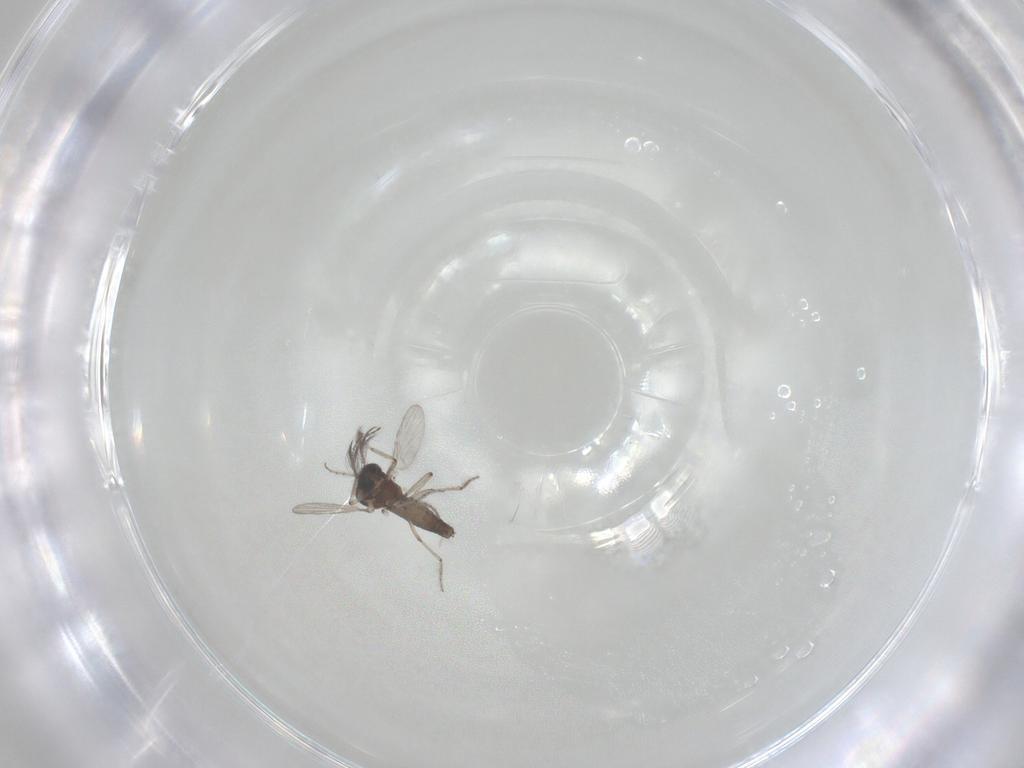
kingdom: Animalia
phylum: Arthropoda
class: Insecta
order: Diptera
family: Ceratopogonidae
